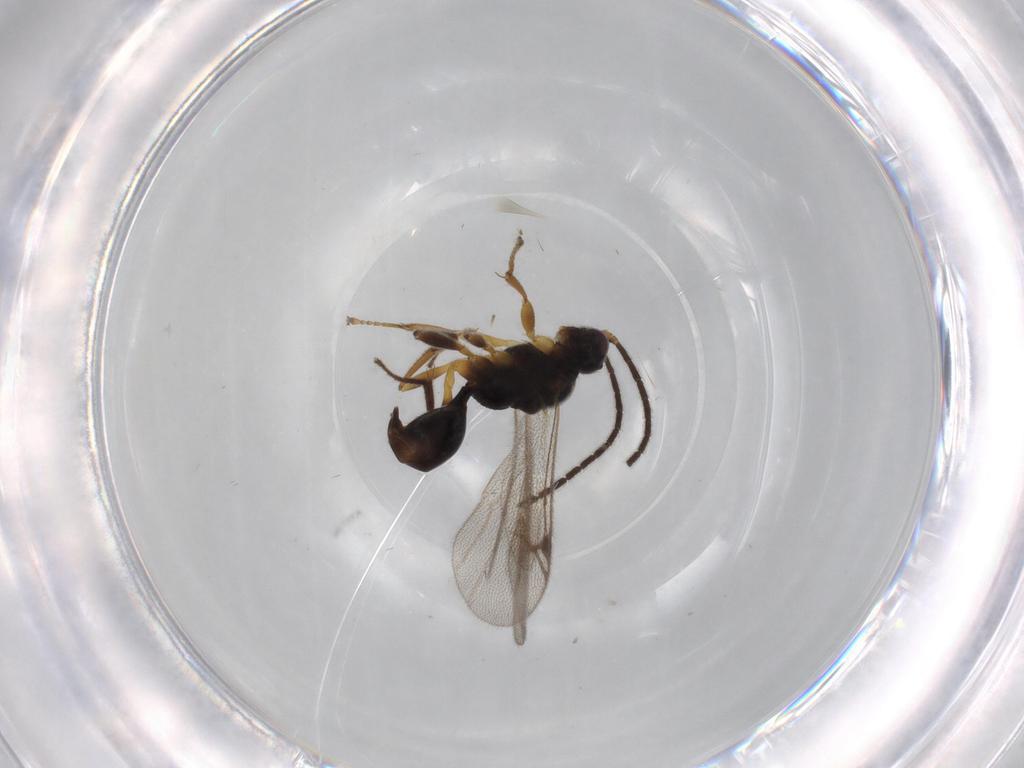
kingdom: Animalia
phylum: Arthropoda
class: Insecta
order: Hymenoptera
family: Proctotrupidae
